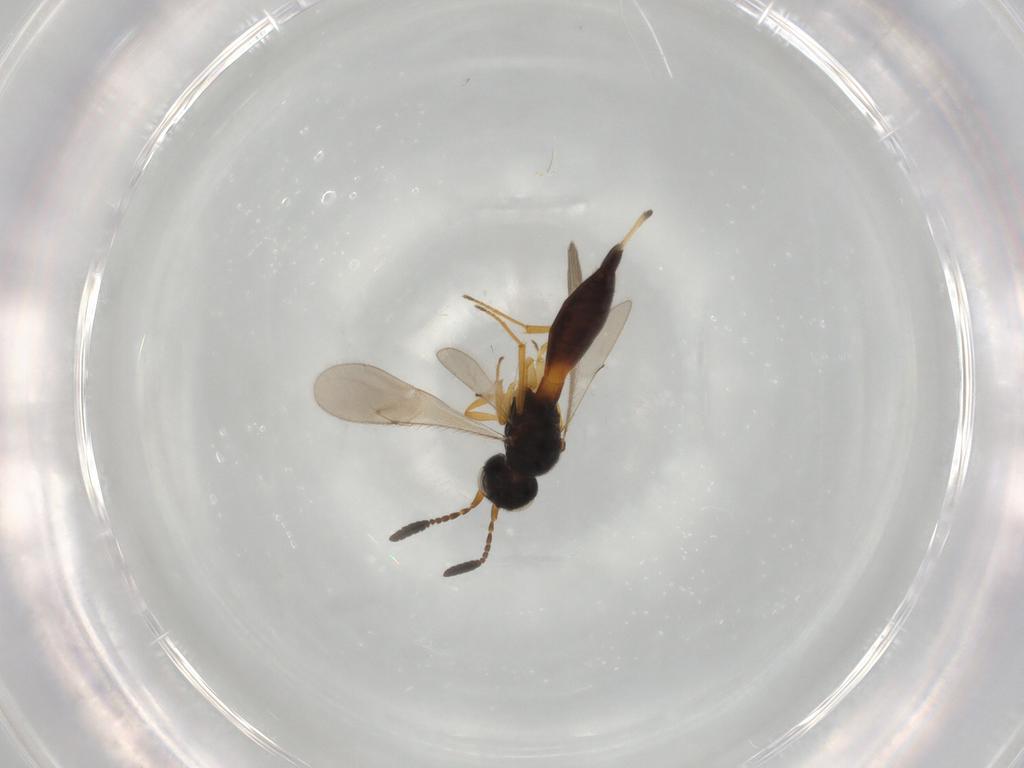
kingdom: Animalia
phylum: Arthropoda
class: Insecta
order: Hymenoptera
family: Scelionidae
